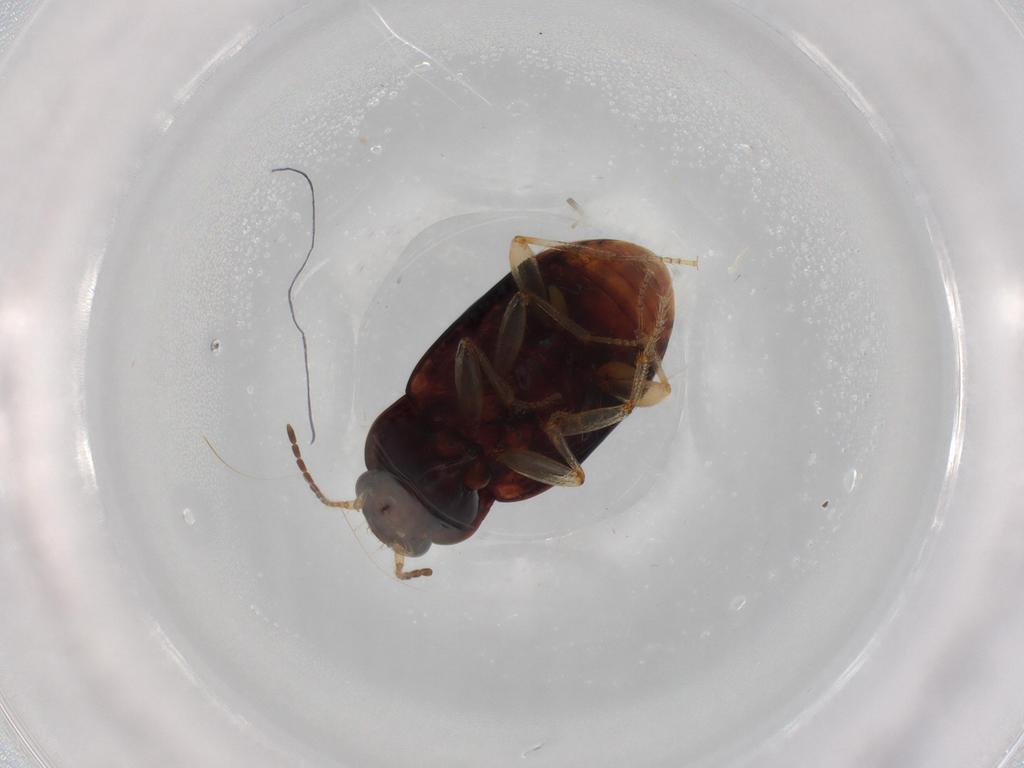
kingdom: Animalia
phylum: Arthropoda
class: Insecta
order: Coleoptera
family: Carabidae
